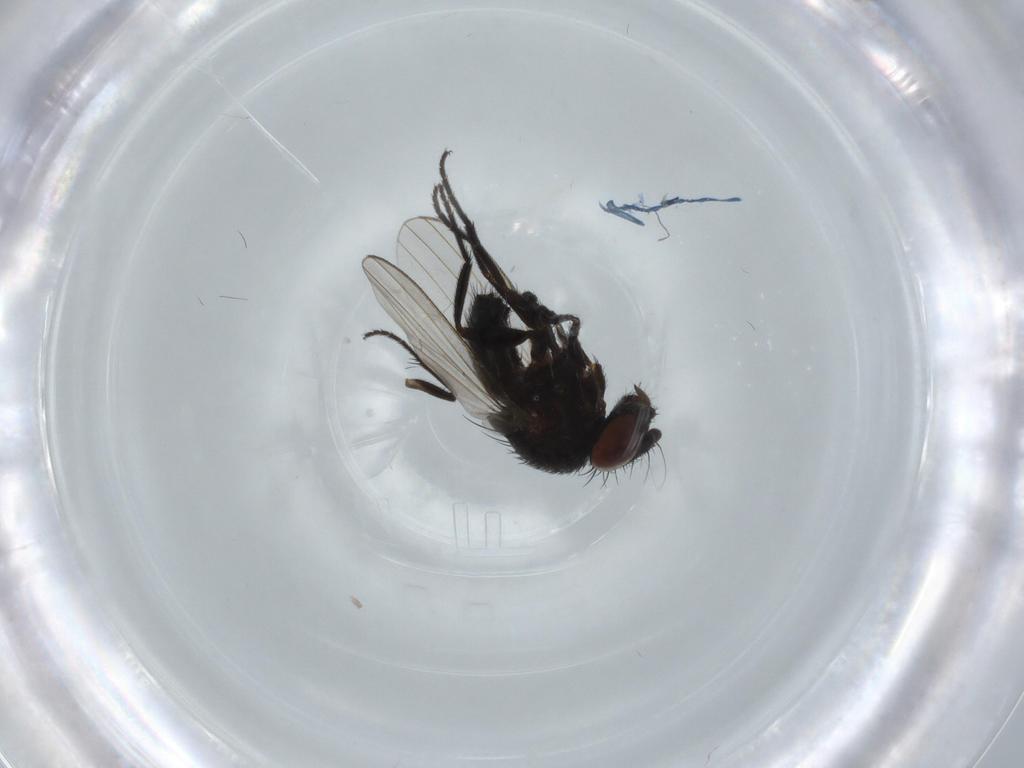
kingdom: Animalia
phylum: Arthropoda
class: Insecta
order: Diptera
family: Milichiidae
